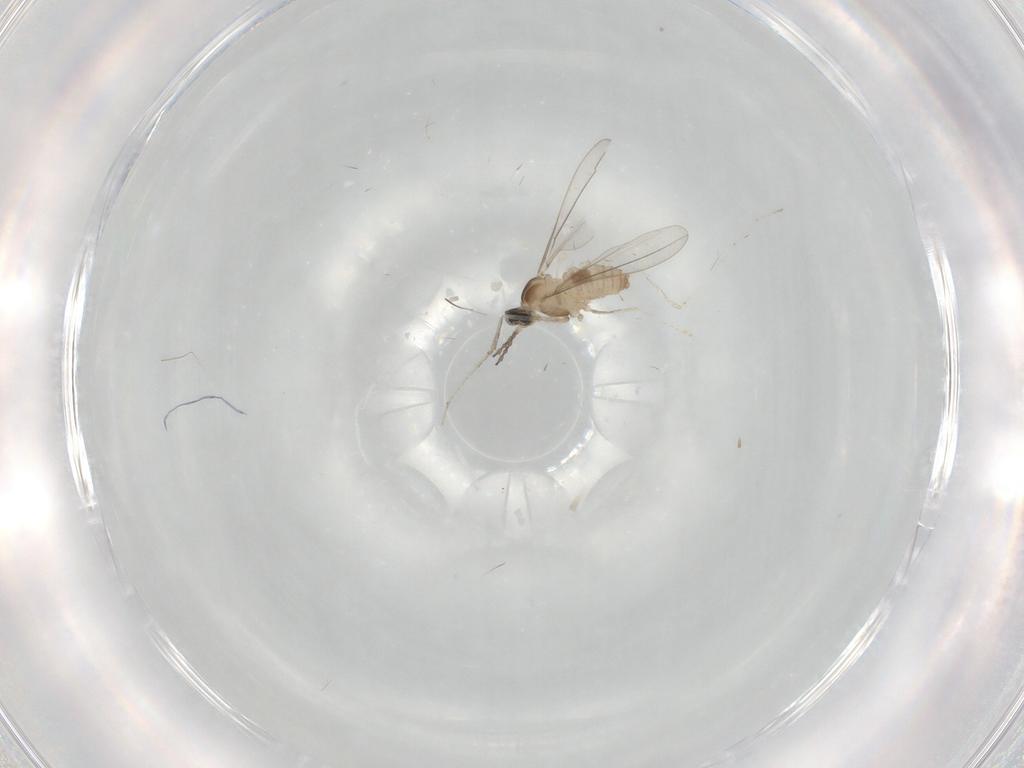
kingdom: Animalia
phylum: Arthropoda
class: Insecta
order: Diptera
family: Cecidomyiidae
